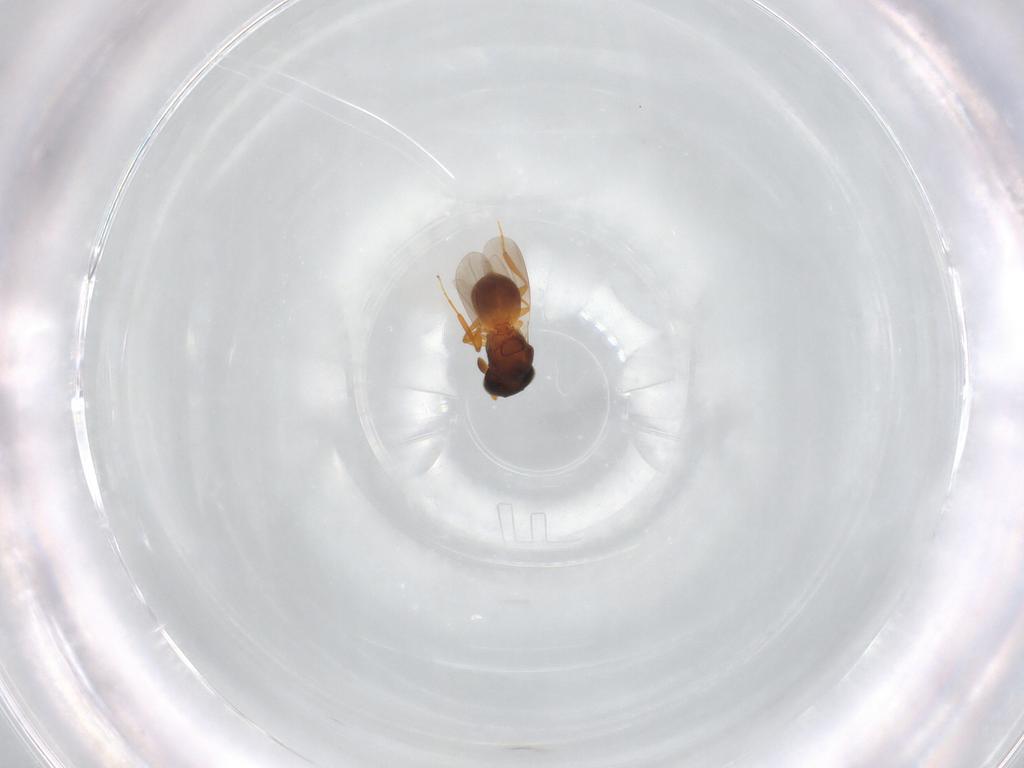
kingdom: Animalia
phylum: Arthropoda
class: Insecta
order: Hymenoptera
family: Platygastridae
